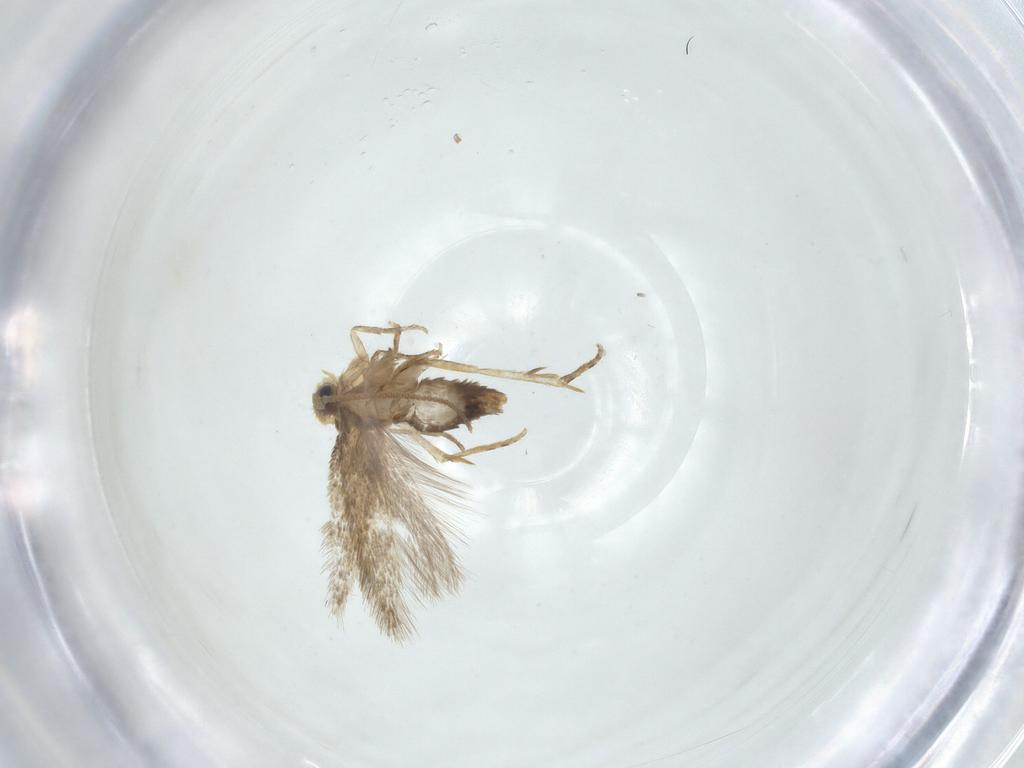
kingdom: Animalia
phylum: Arthropoda
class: Insecta
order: Lepidoptera
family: Nepticulidae
